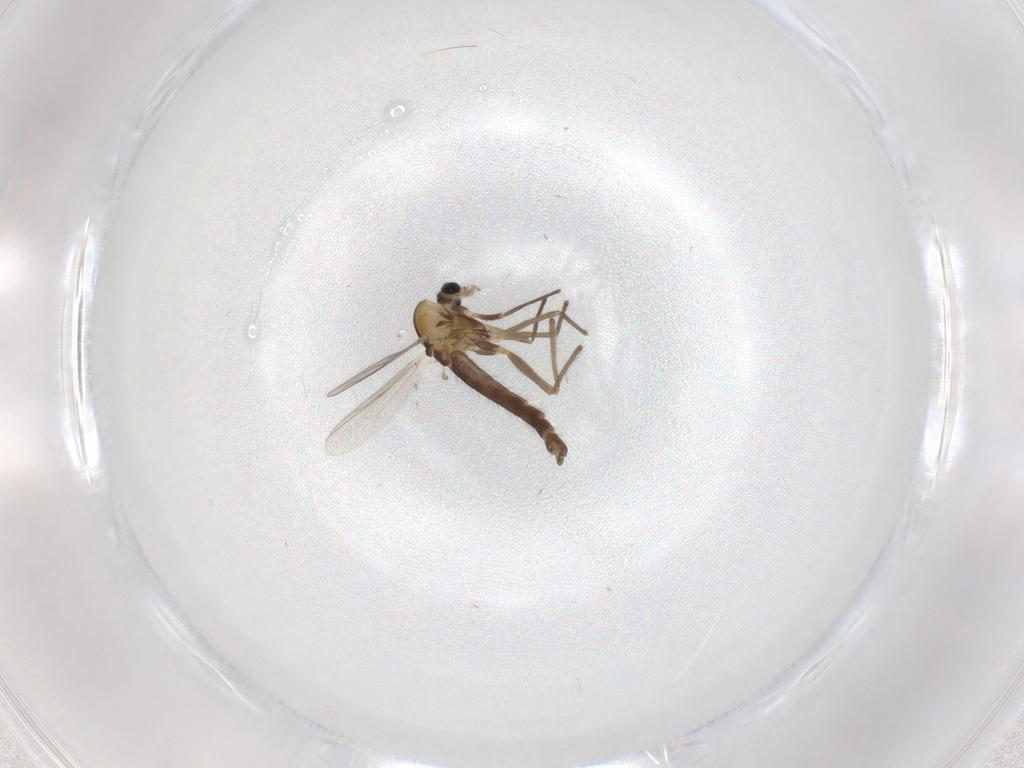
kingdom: Animalia
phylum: Arthropoda
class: Insecta
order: Diptera
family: Chironomidae
